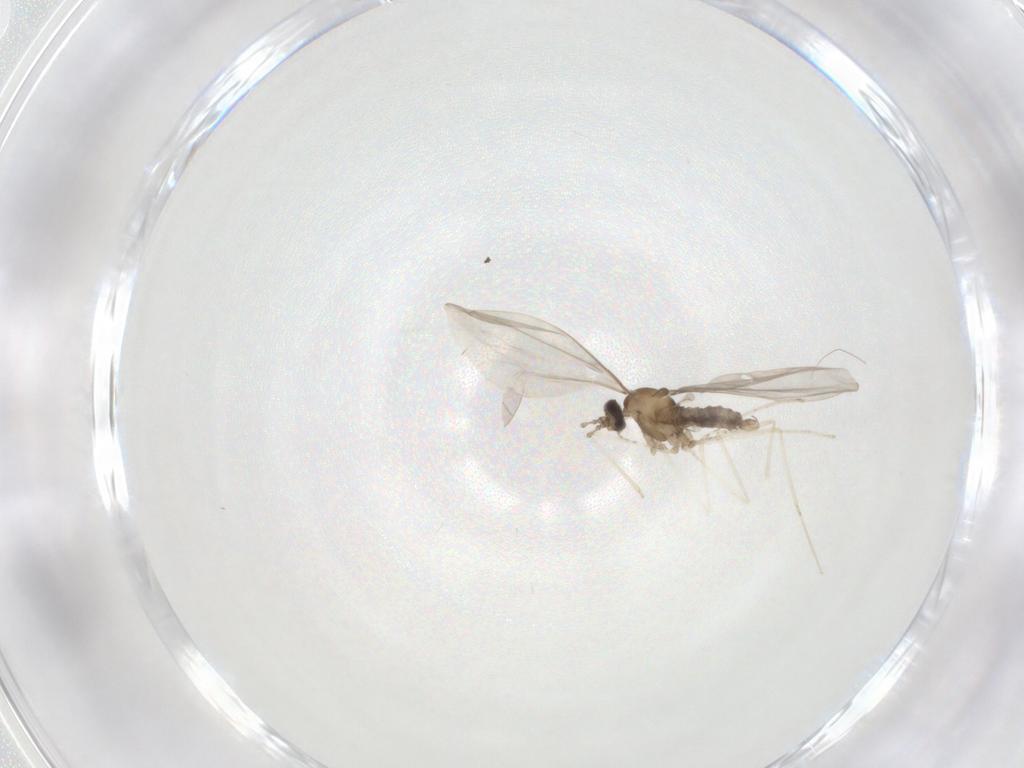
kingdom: Animalia
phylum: Arthropoda
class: Insecta
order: Diptera
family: Cecidomyiidae
